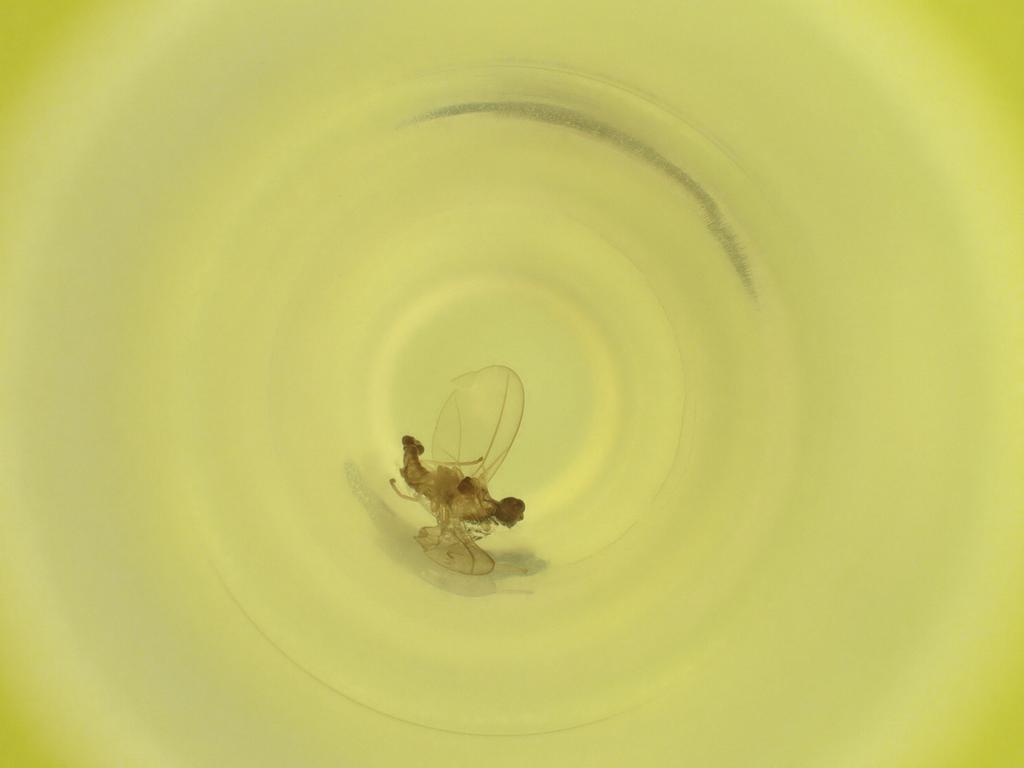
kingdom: Animalia
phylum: Arthropoda
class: Insecta
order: Diptera
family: Cecidomyiidae
